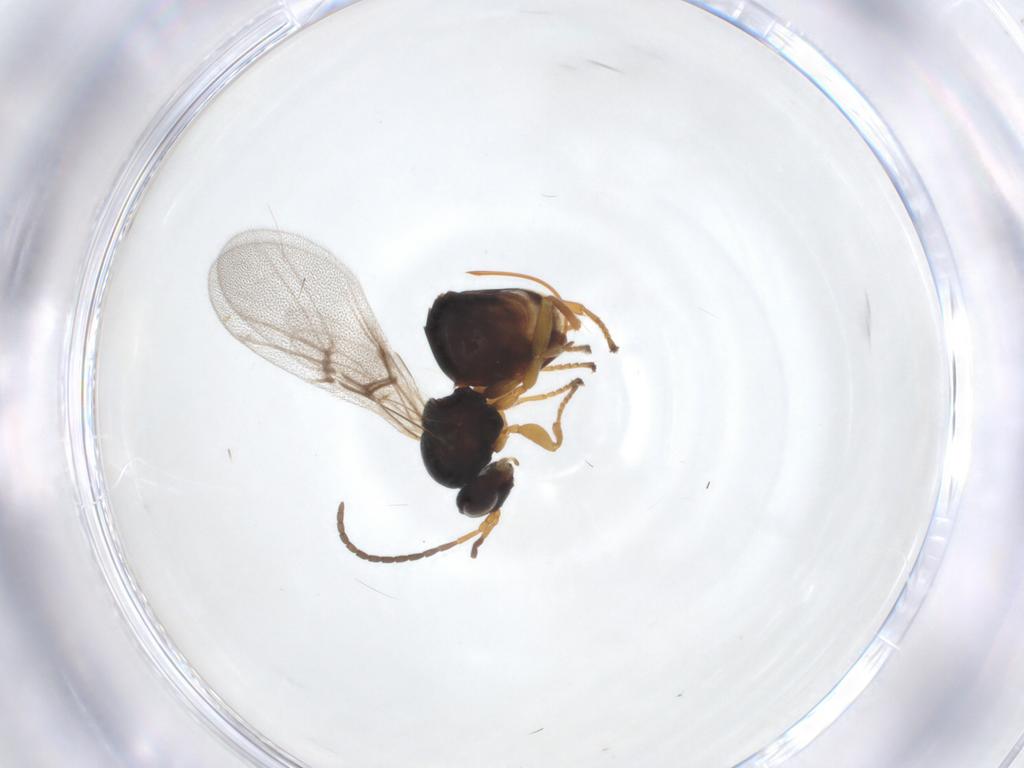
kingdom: Animalia
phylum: Arthropoda
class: Insecta
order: Hymenoptera
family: Cynipidae
